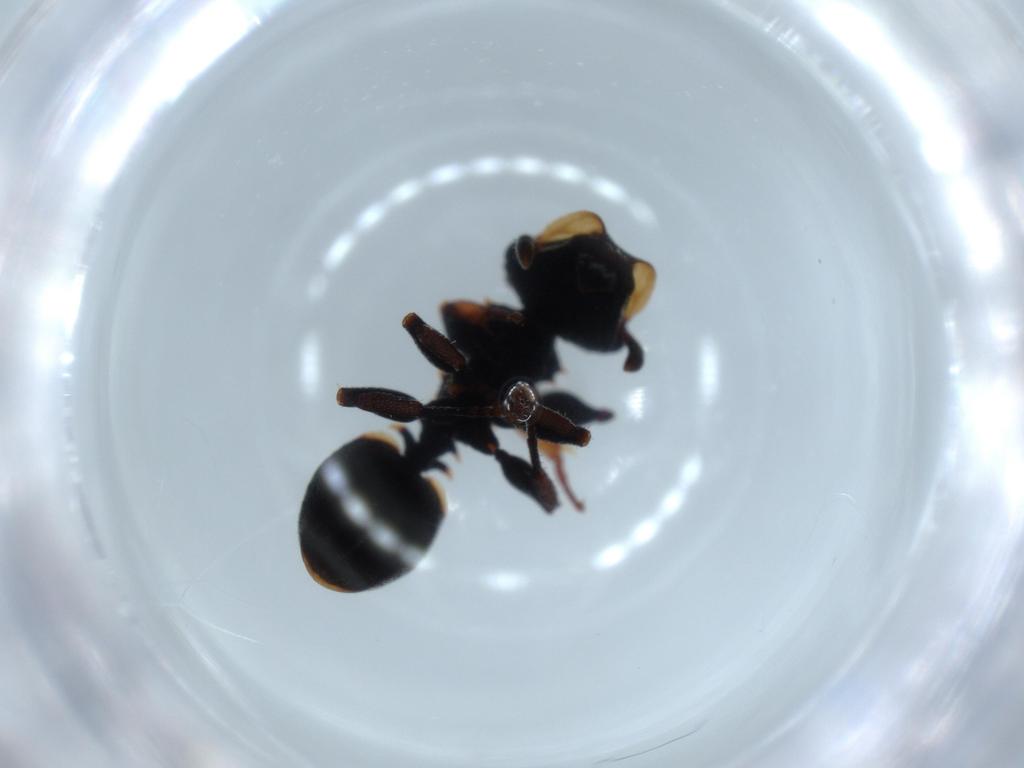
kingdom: Animalia
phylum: Arthropoda
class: Insecta
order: Hymenoptera
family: Formicidae
